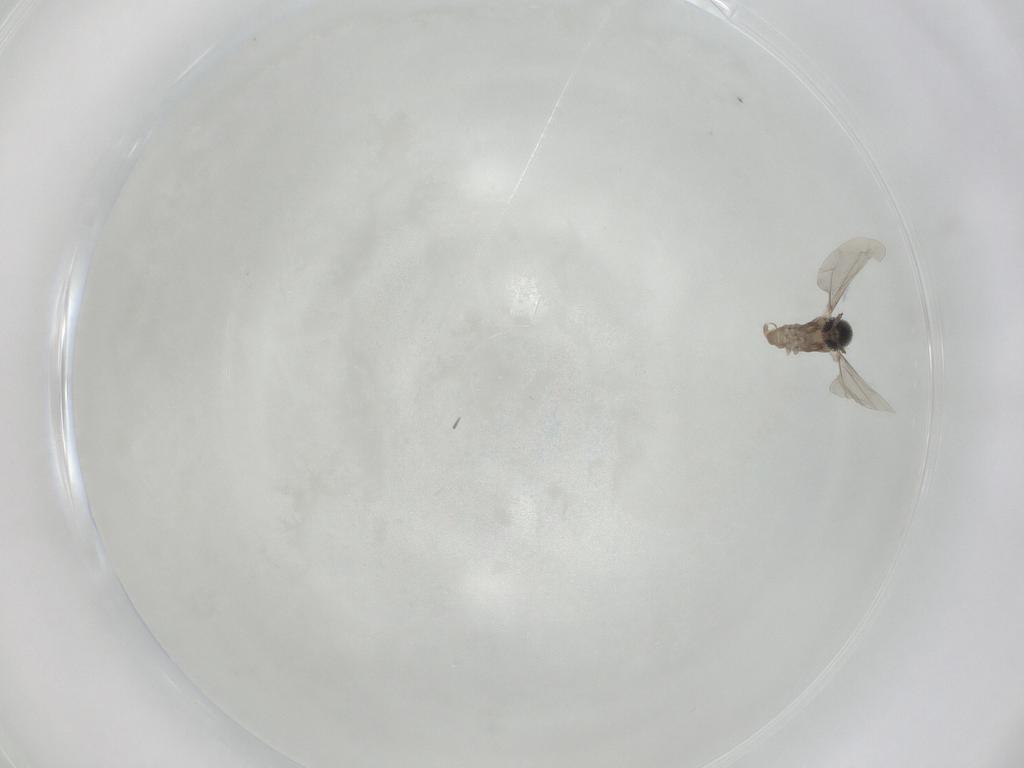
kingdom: Animalia
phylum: Arthropoda
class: Insecta
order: Diptera
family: Cecidomyiidae
